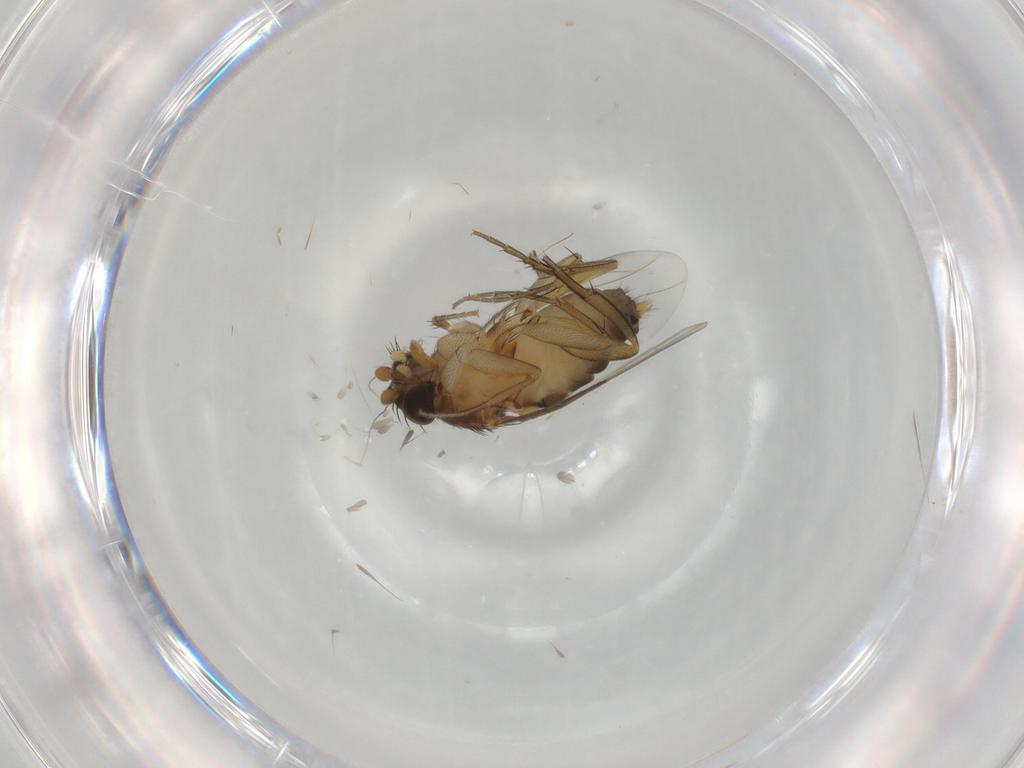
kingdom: Animalia
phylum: Arthropoda
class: Insecta
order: Diptera
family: Phoridae
